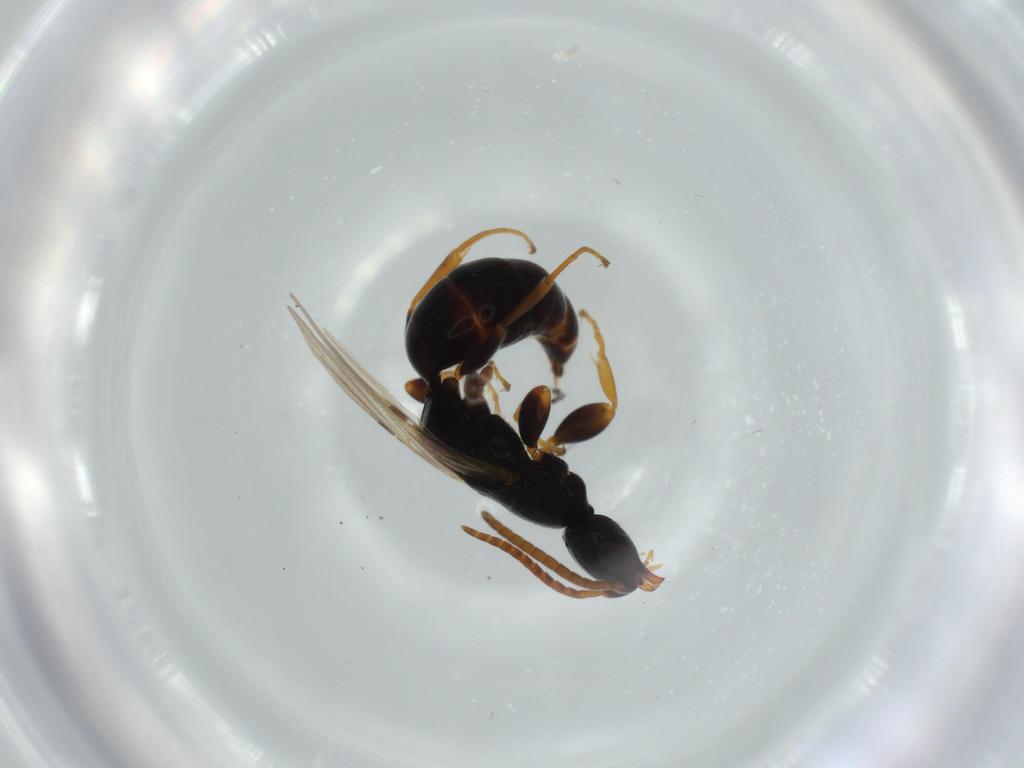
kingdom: Animalia
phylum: Arthropoda
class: Insecta
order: Hymenoptera
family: Bethylidae
